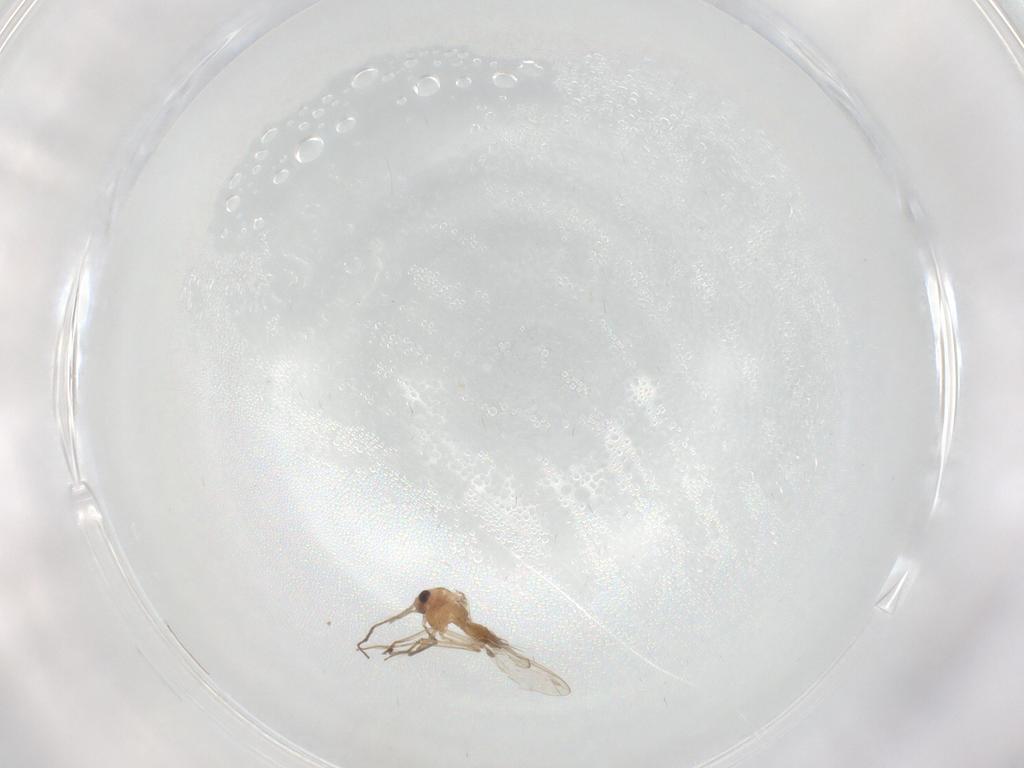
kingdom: Animalia
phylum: Arthropoda
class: Insecta
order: Diptera
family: Chironomidae
